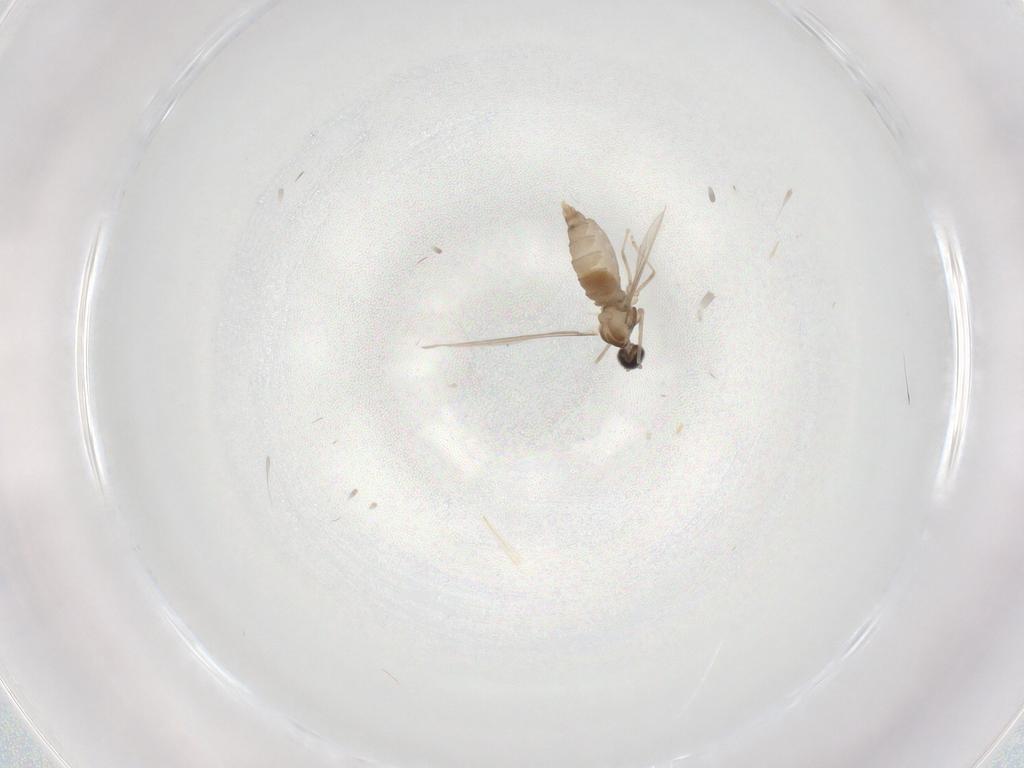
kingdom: Animalia
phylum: Arthropoda
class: Insecta
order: Diptera
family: Cecidomyiidae
